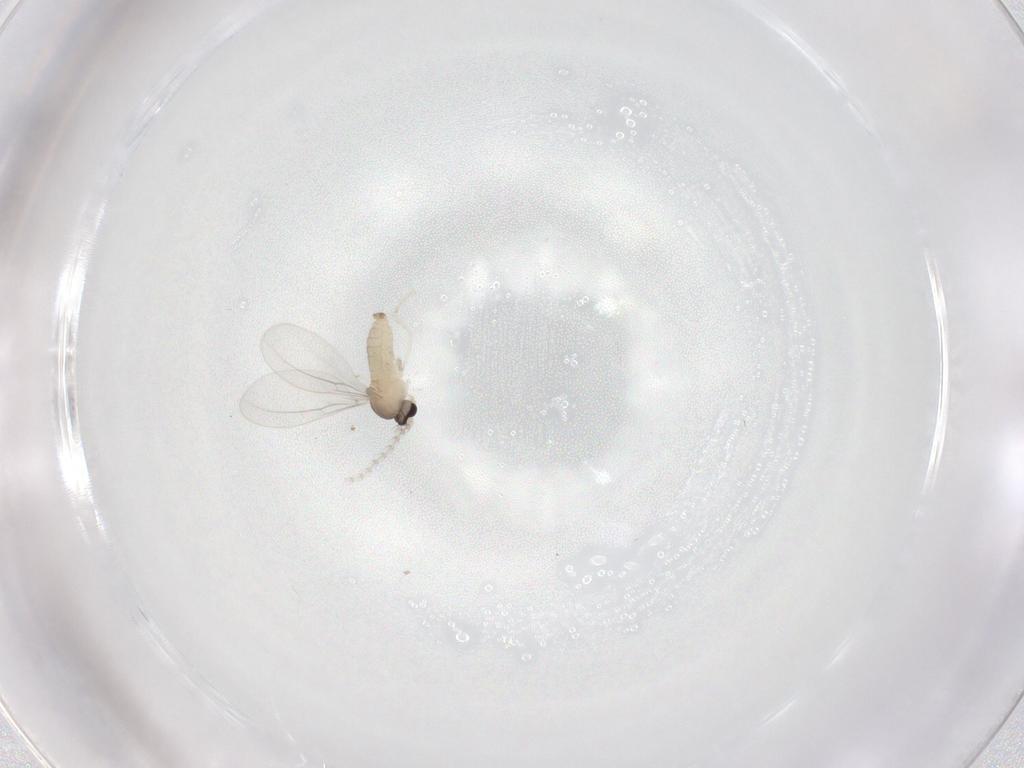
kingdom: Animalia
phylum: Arthropoda
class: Insecta
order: Diptera
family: Cecidomyiidae
